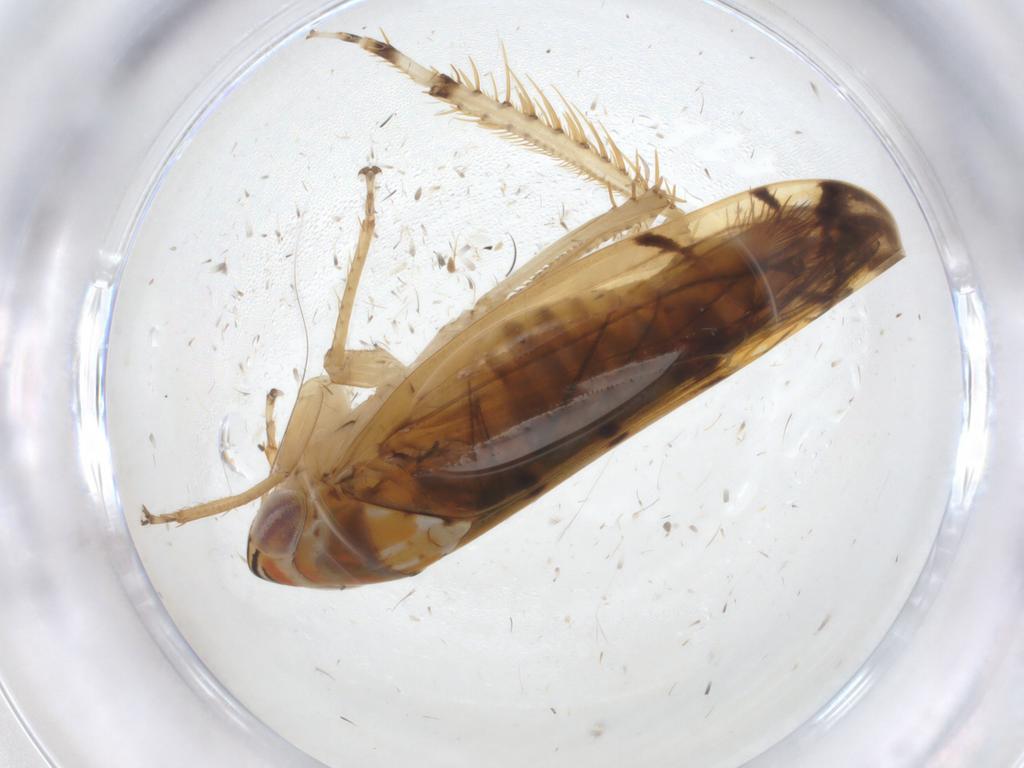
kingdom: Animalia
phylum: Arthropoda
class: Insecta
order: Hemiptera
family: Cercopidae
